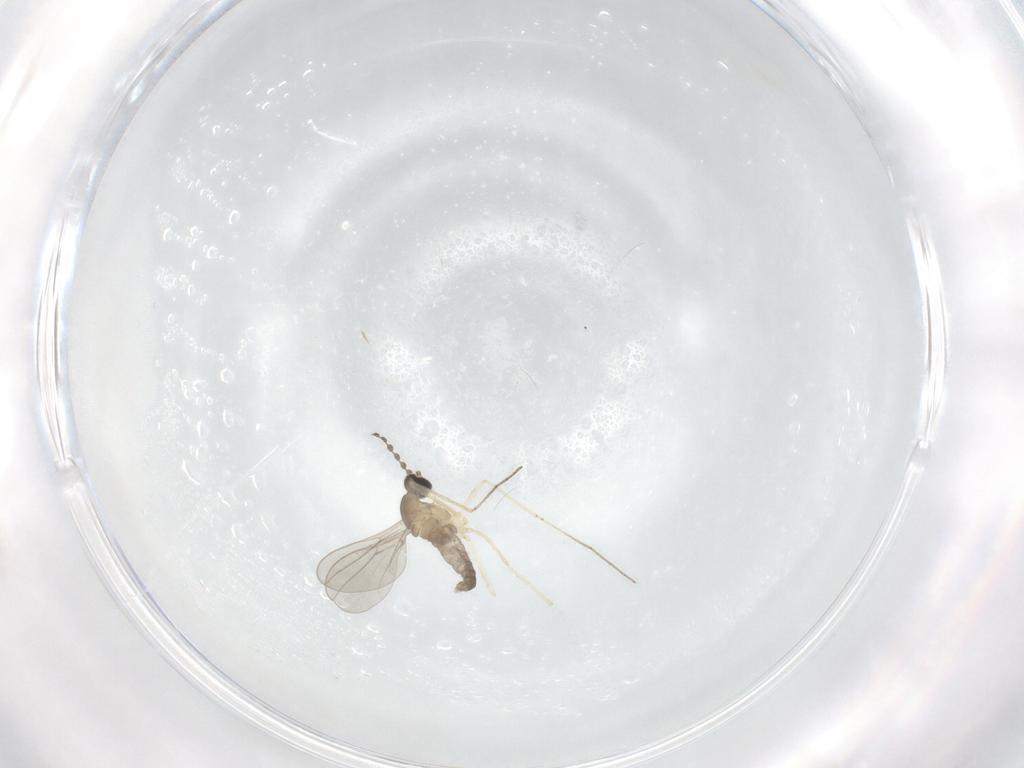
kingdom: Animalia
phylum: Arthropoda
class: Insecta
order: Diptera
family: Cecidomyiidae
